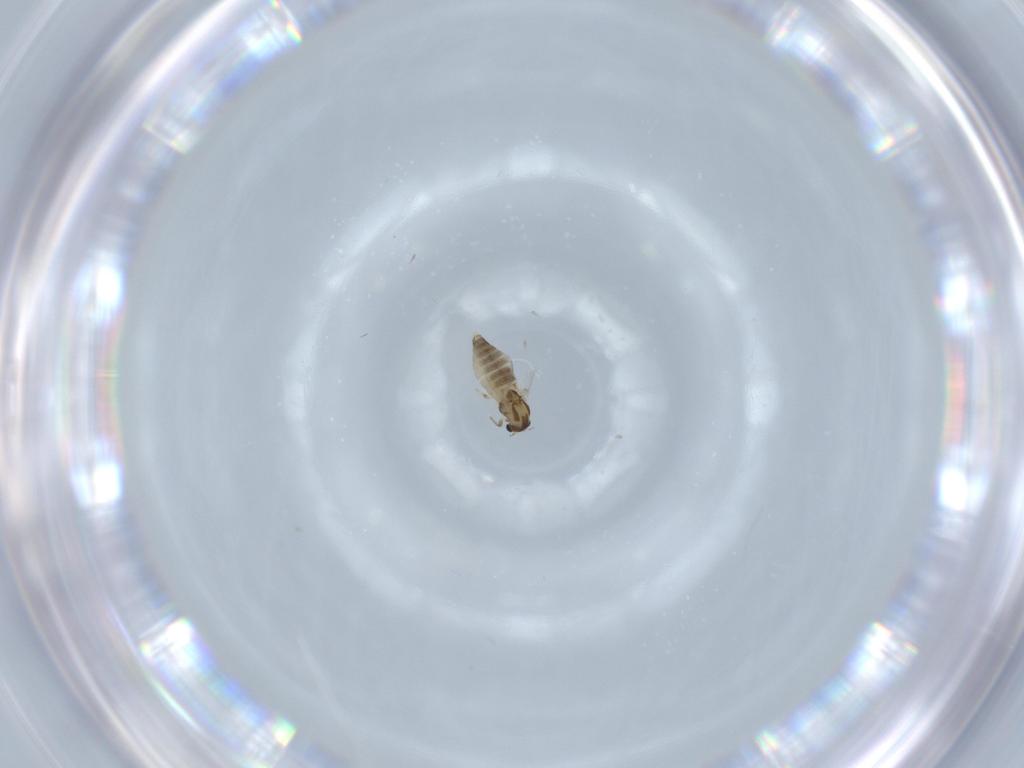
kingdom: Animalia
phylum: Arthropoda
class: Insecta
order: Diptera
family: Chironomidae
